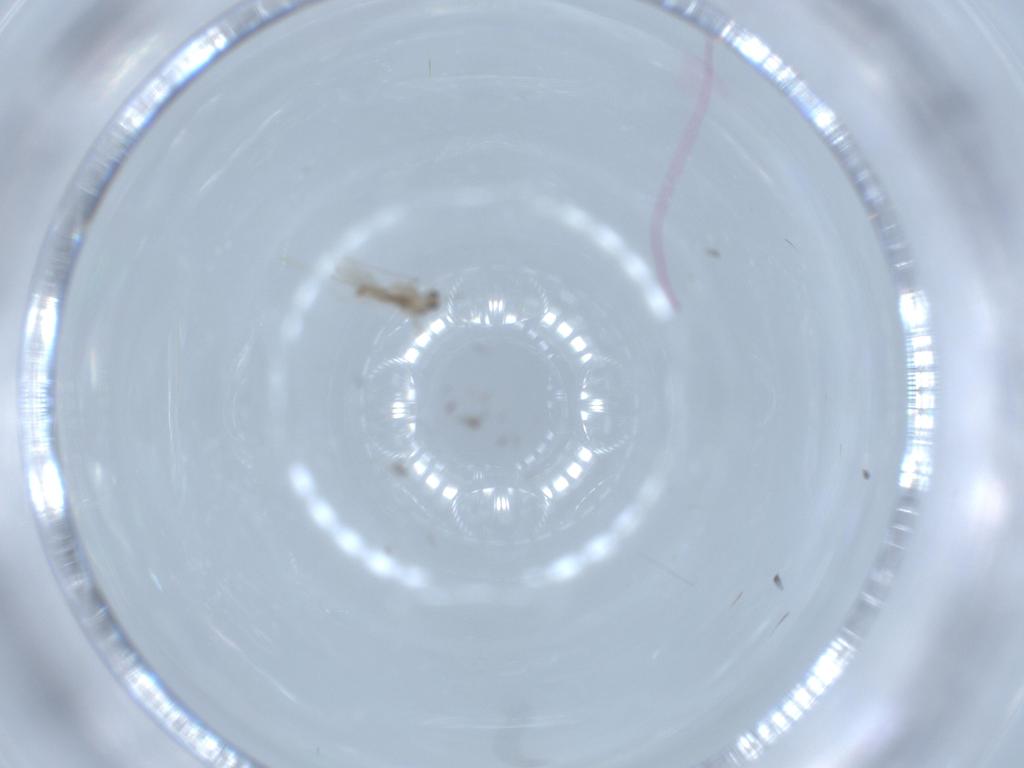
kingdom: Animalia
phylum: Arthropoda
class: Insecta
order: Diptera
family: Cecidomyiidae
